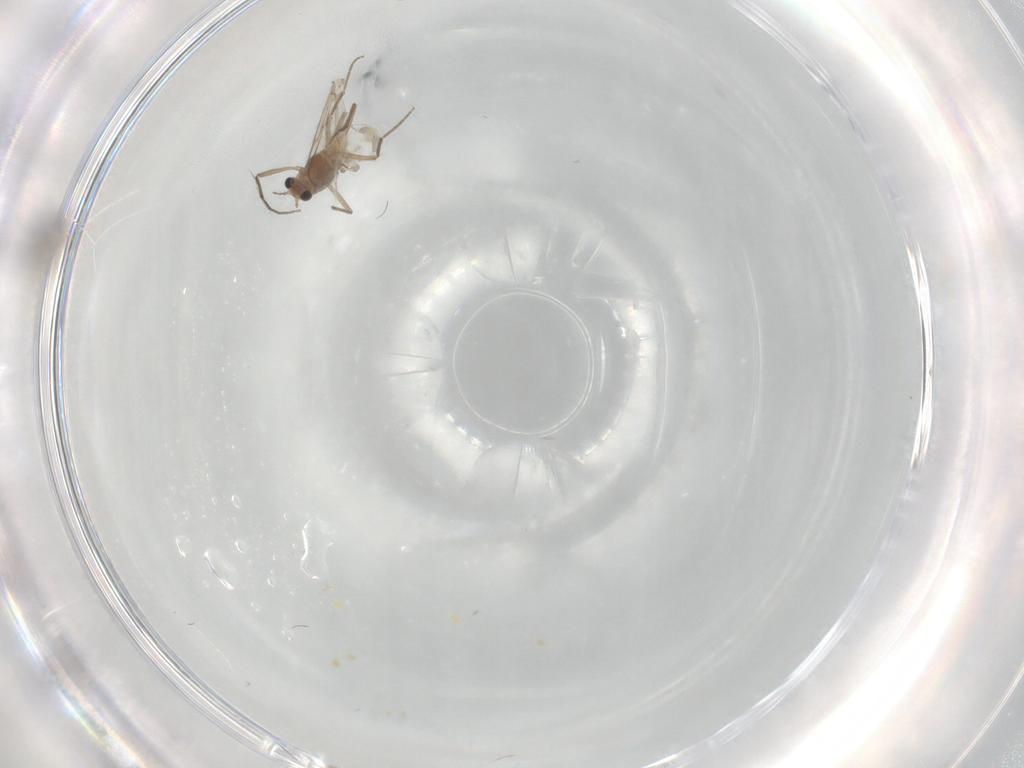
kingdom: Animalia
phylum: Arthropoda
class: Insecta
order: Diptera
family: Chironomidae
